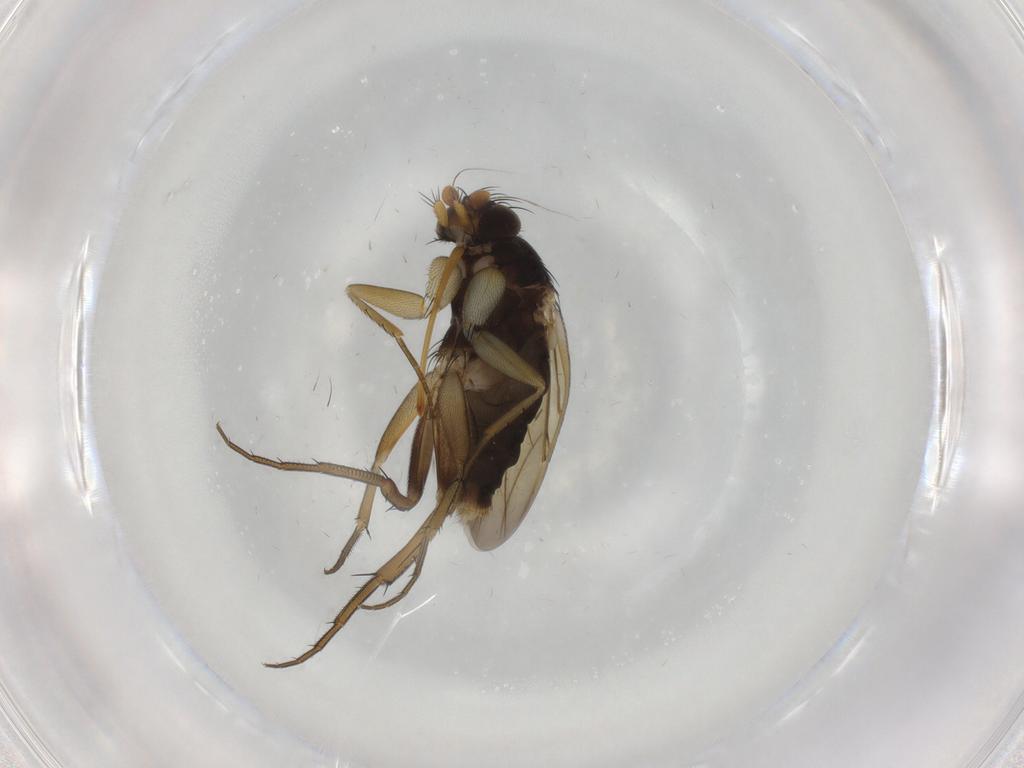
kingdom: Animalia
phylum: Arthropoda
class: Insecta
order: Diptera
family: Phoridae
